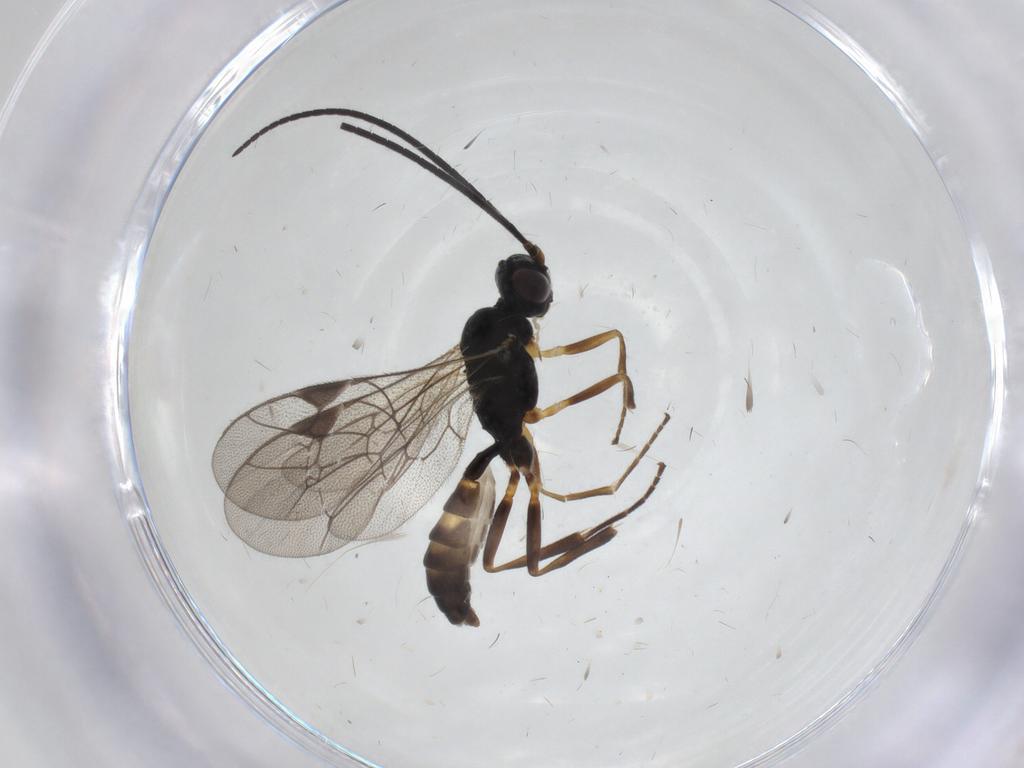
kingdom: Animalia
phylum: Arthropoda
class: Insecta
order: Hymenoptera
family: Ichneumonidae
